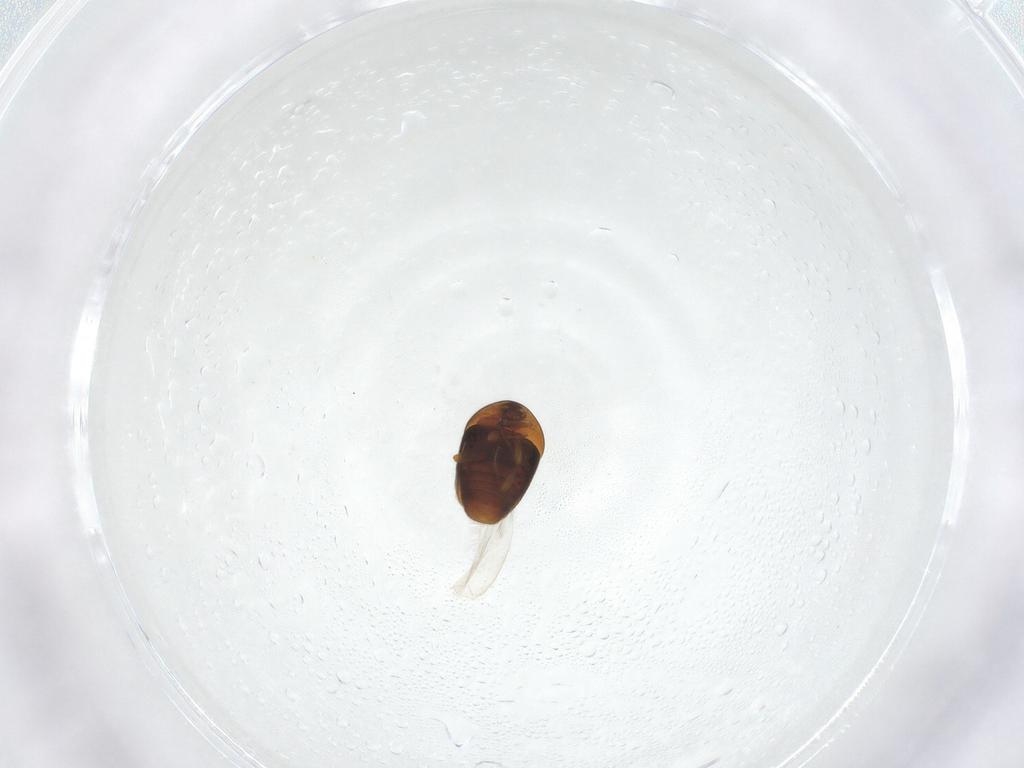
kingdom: Animalia
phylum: Arthropoda
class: Insecta
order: Coleoptera
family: Corylophidae
